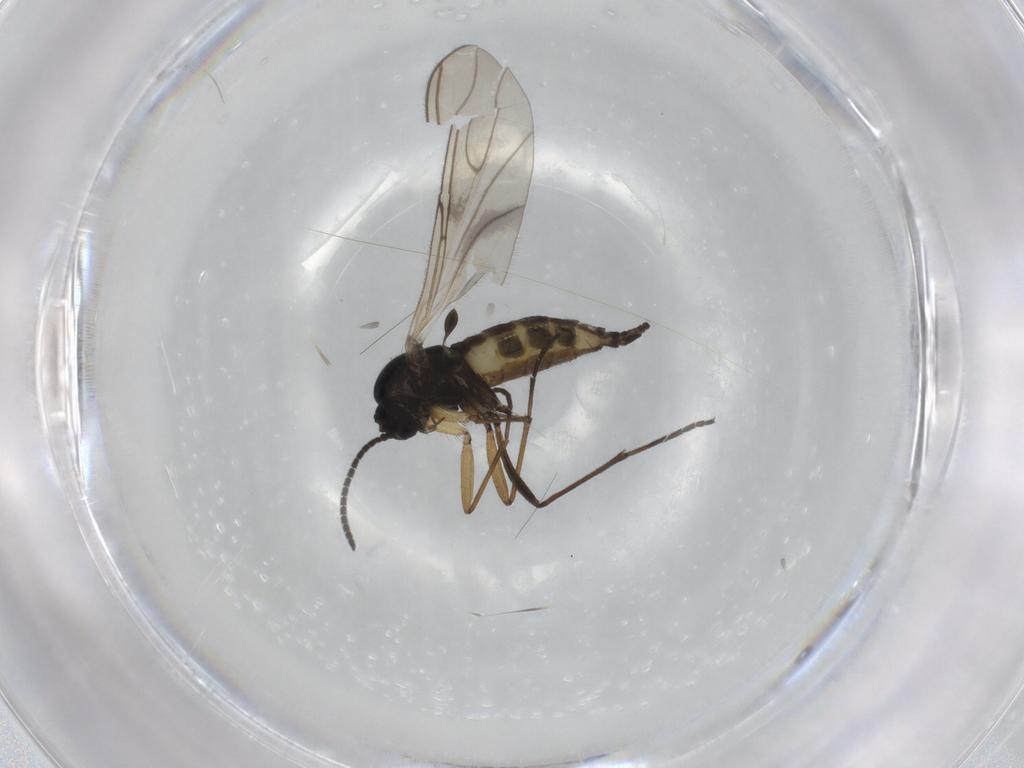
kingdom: Animalia
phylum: Arthropoda
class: Insecta
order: Diptera
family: Sciaridae
